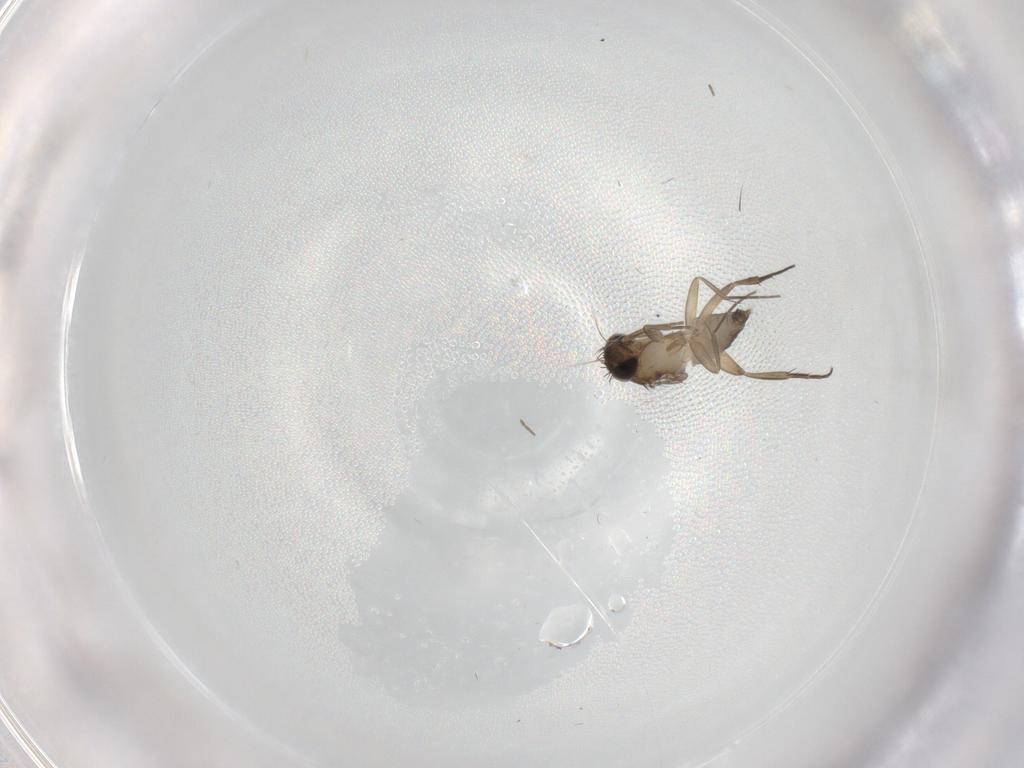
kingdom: Animalia
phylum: Arthropoda
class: Insecta
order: Diptera
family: Phoridae
